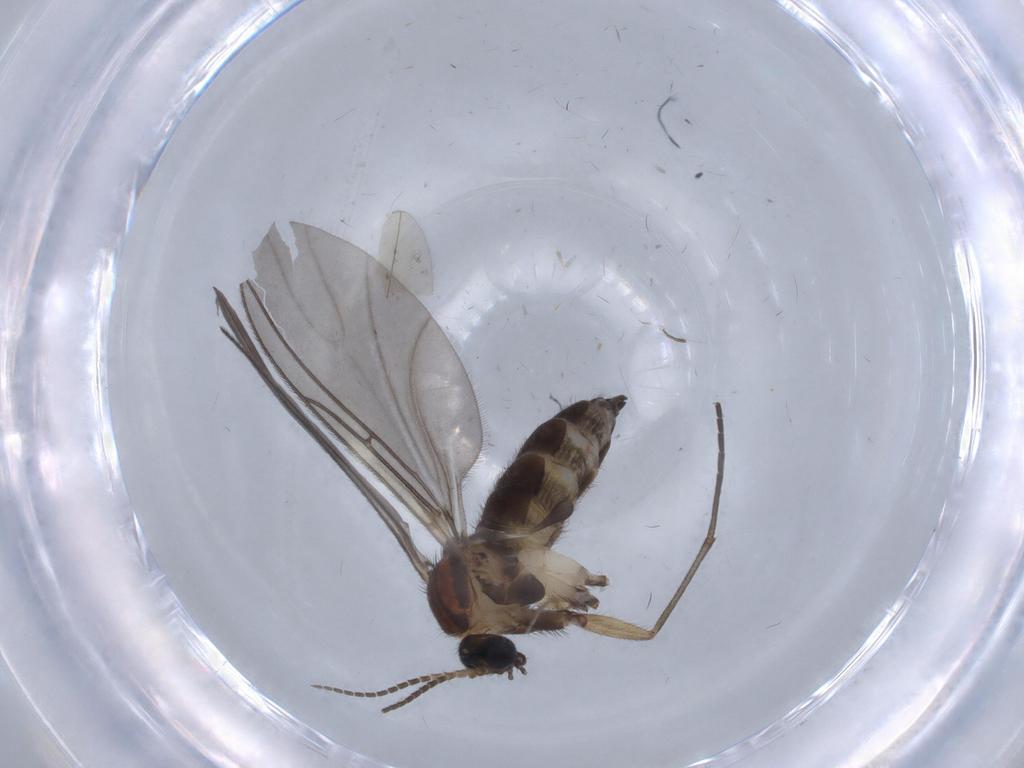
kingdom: Animalia
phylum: Arthropoda
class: Insecta
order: Diptera
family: Sciaridae
